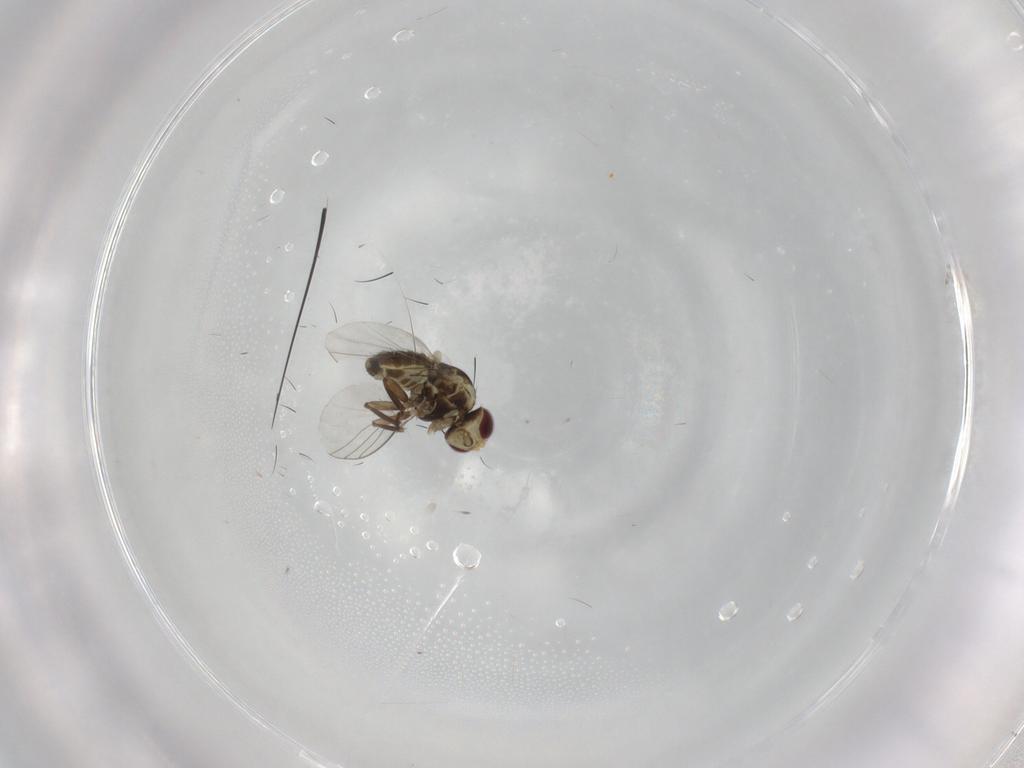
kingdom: Animalia
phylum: Arthropoda
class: Insecta
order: Diptera
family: Agromyzidae
